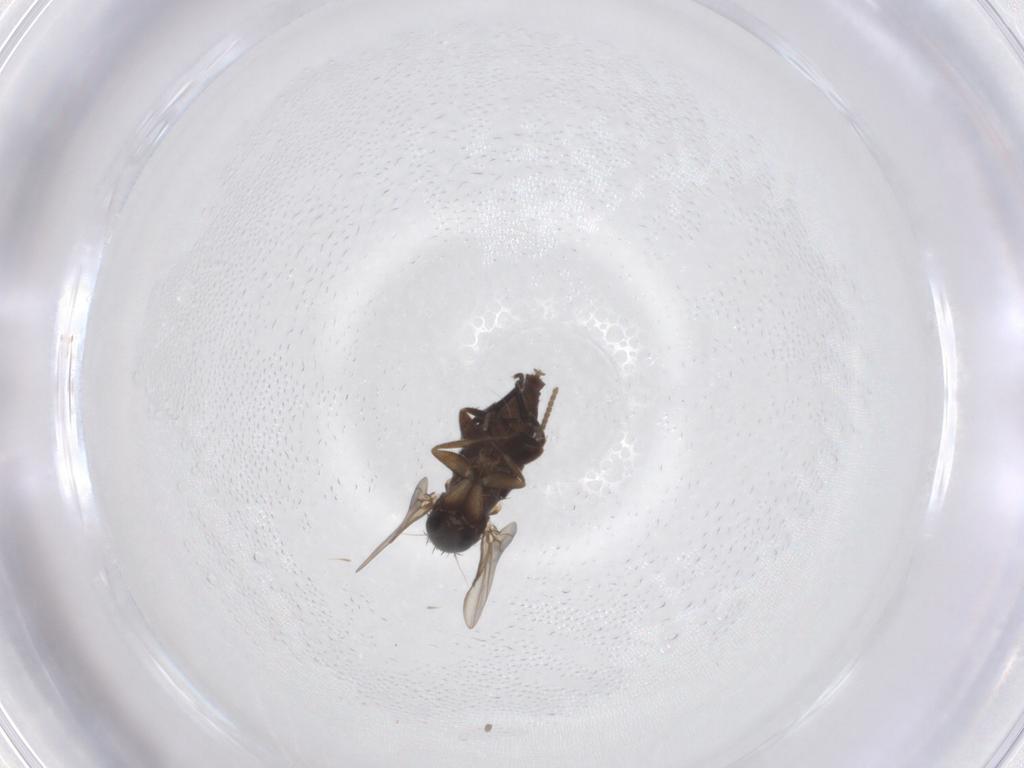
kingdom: Animalia
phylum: Arthropoda
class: Insecta
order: Diptera
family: Phoridae
